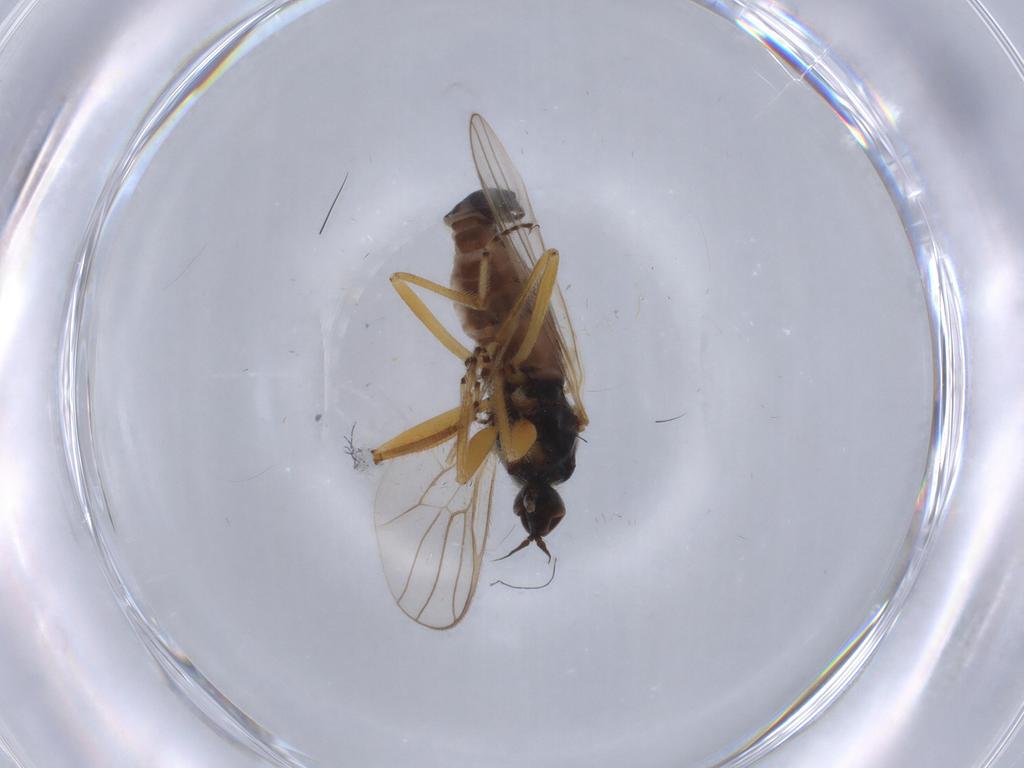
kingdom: Animalia
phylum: Arthropoda
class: Insecta
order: Diptera
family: Hybotidae
